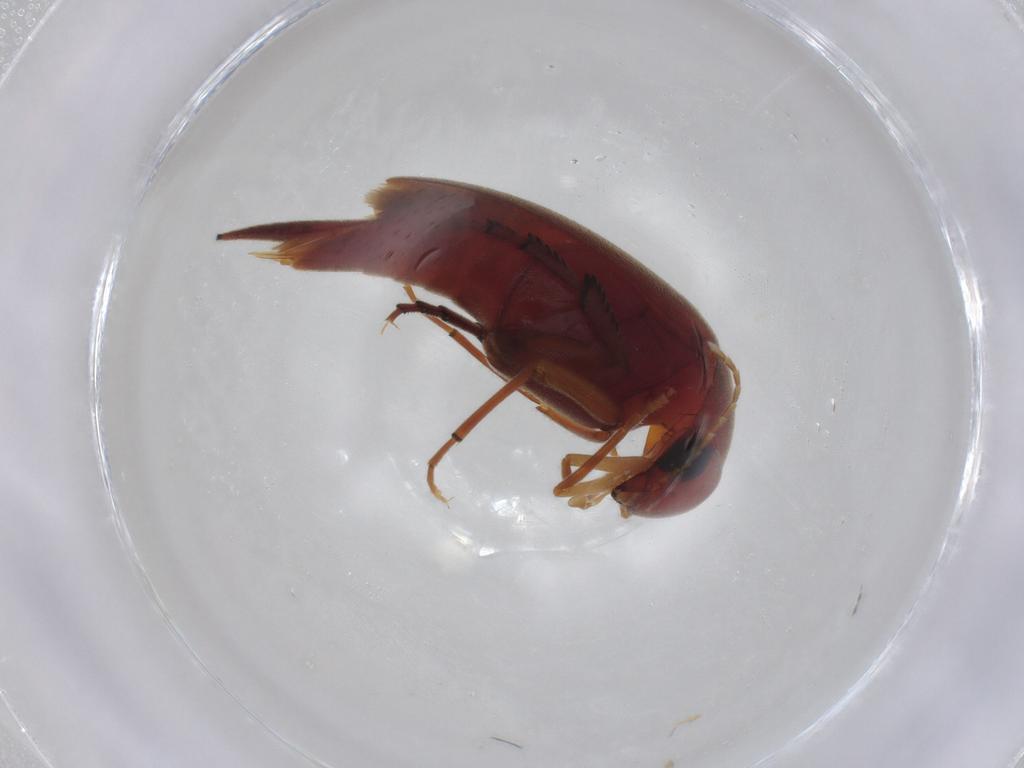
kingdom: Animalia
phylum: Arthropoda
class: Insecta
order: Coleoptera
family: Mordellidae
